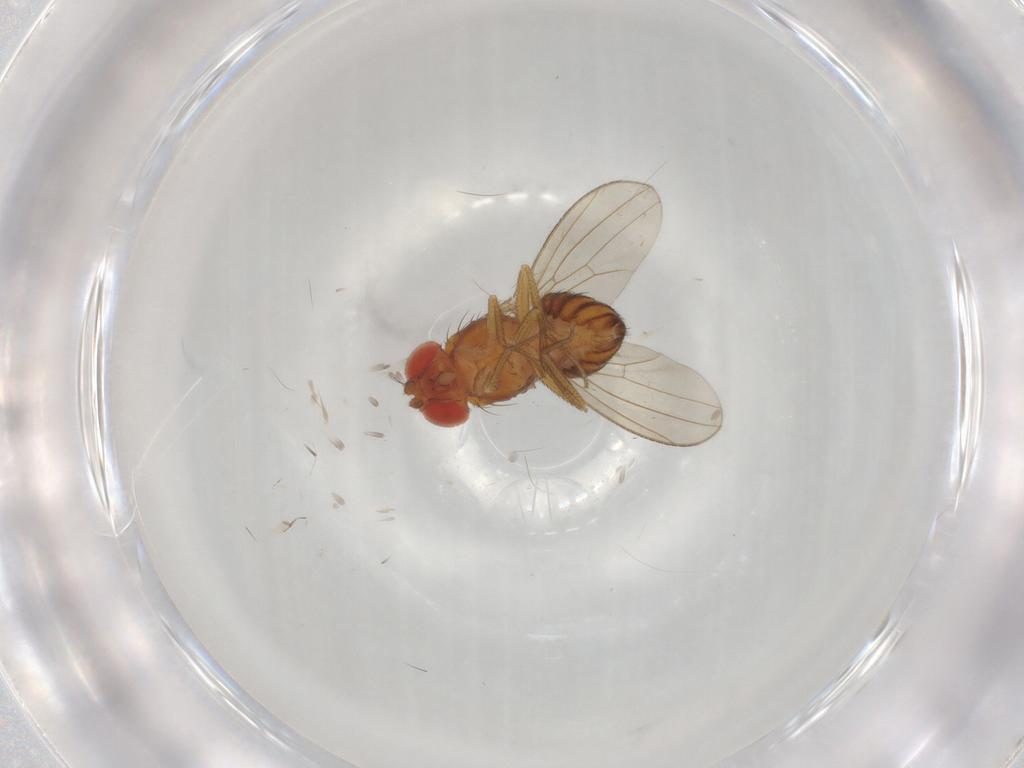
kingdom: Animalia
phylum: Arthropoda
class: Insecta
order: Diptera
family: Drosophilidae
